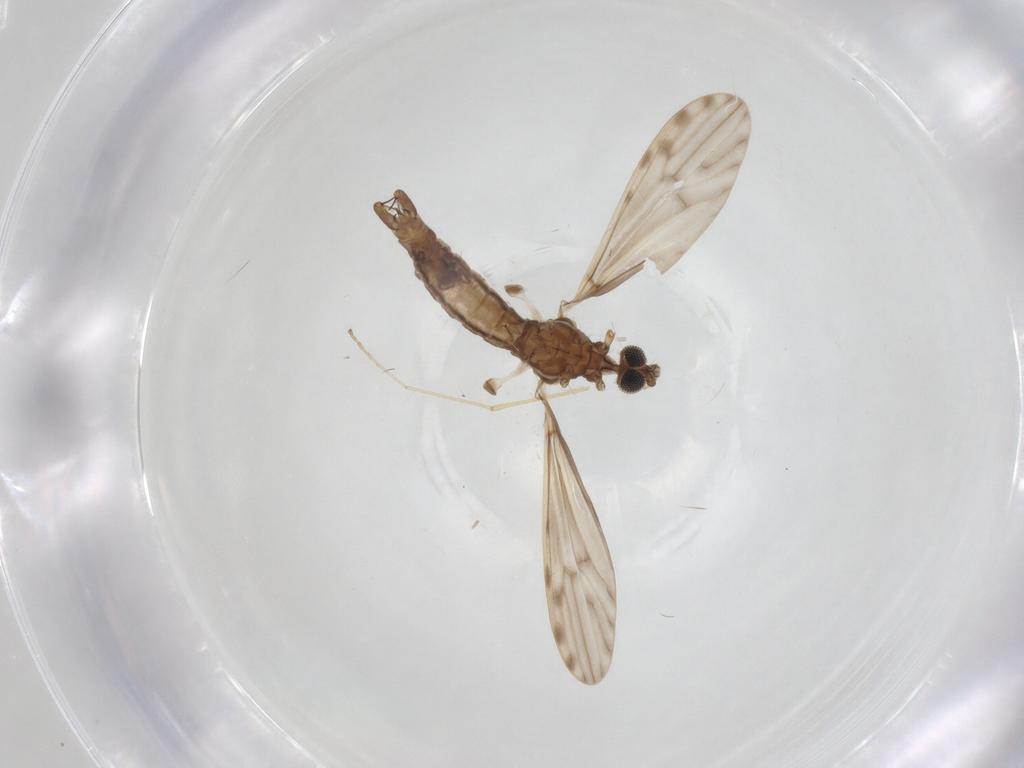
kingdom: Animalia
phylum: Arthropoda
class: Insecta
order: Diptera
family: Limoniidae
